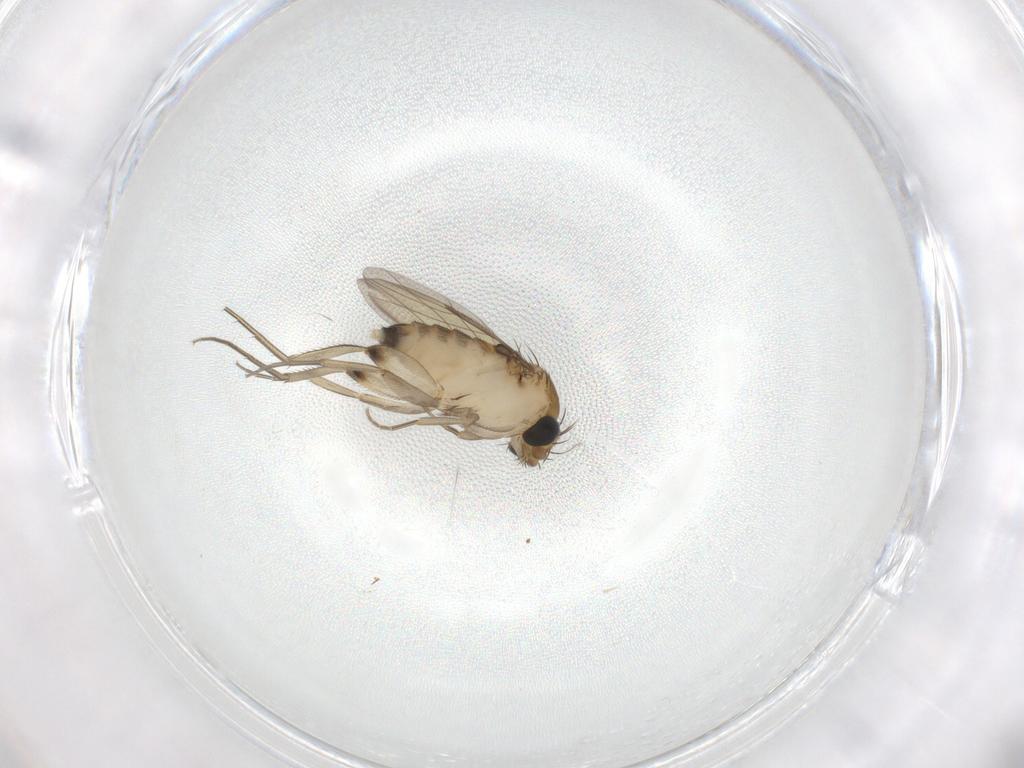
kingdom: Animalia
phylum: Arthropoda
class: Insecta
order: Diptera
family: Phoridae
